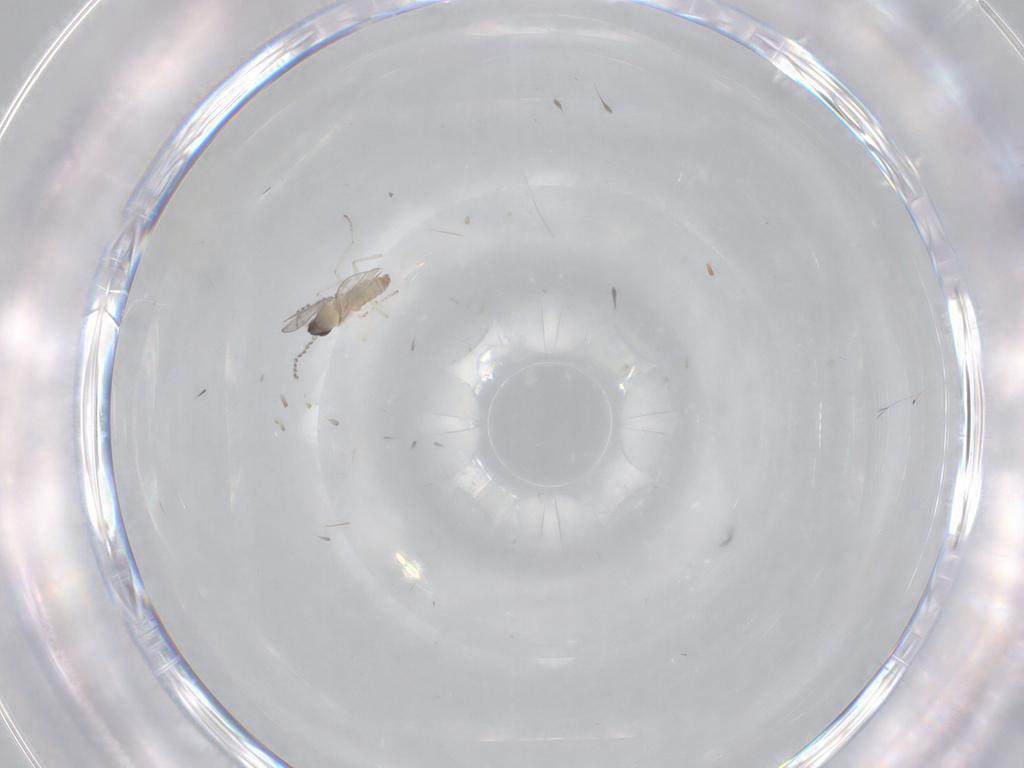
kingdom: Animalia
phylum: Arthropoda
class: Insecta
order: Diptera
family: Cecidomyiidae
